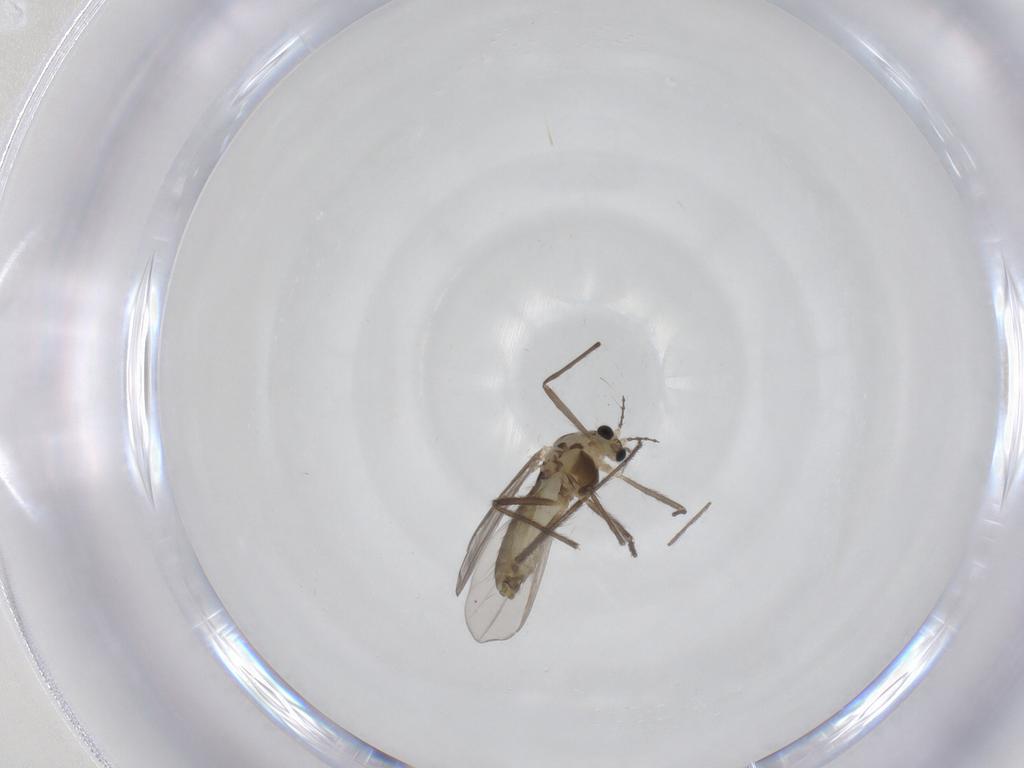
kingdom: Animalia
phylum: Arthropoda
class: Insecta
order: Diptera
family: Chironomidae
